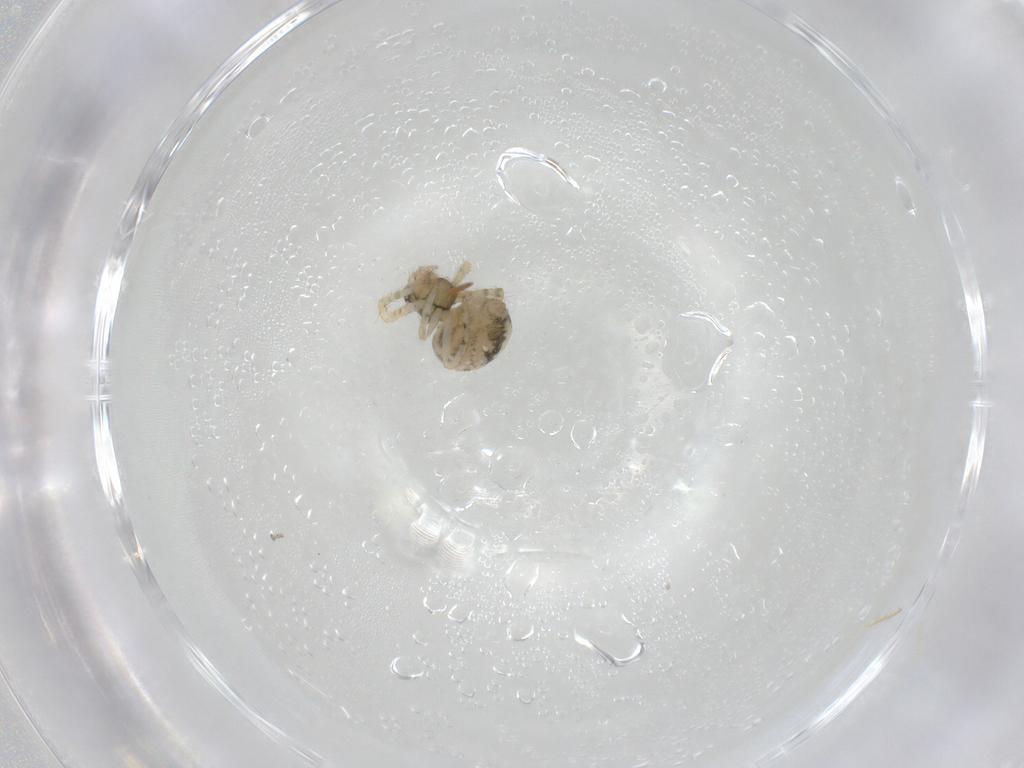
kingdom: Animalia
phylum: Arthropoda
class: Arachnida
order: Araneae
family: Theridiidae
